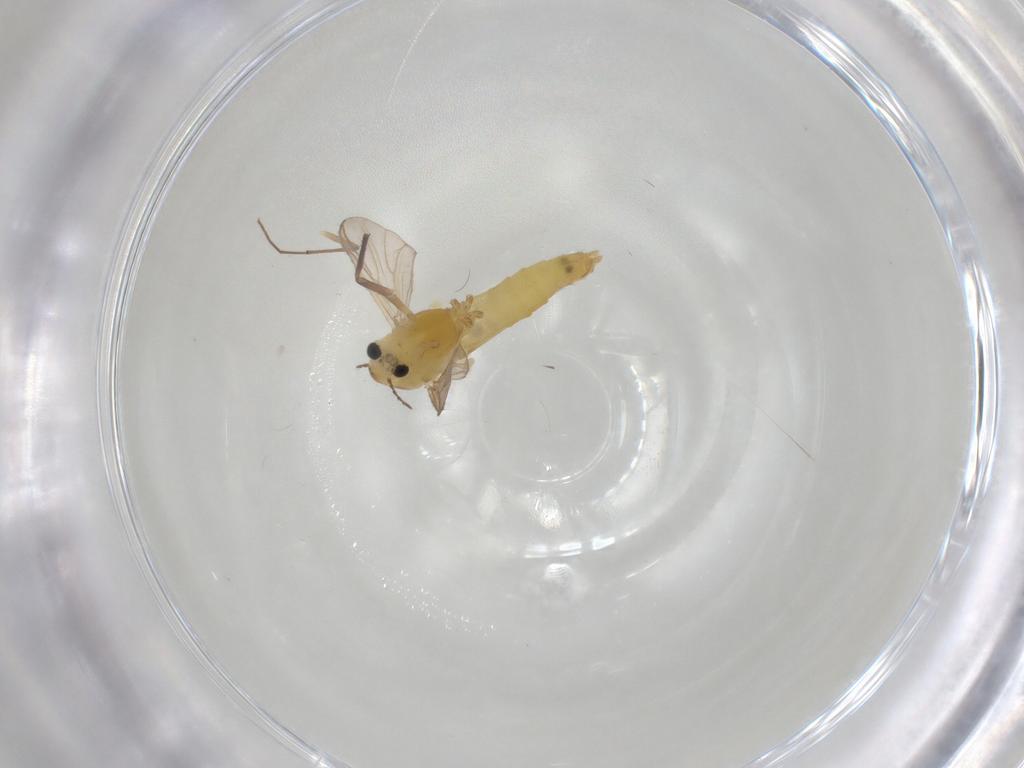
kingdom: Animalia
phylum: Arthropoda
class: Insecta
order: Diptera
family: Chironomidae
